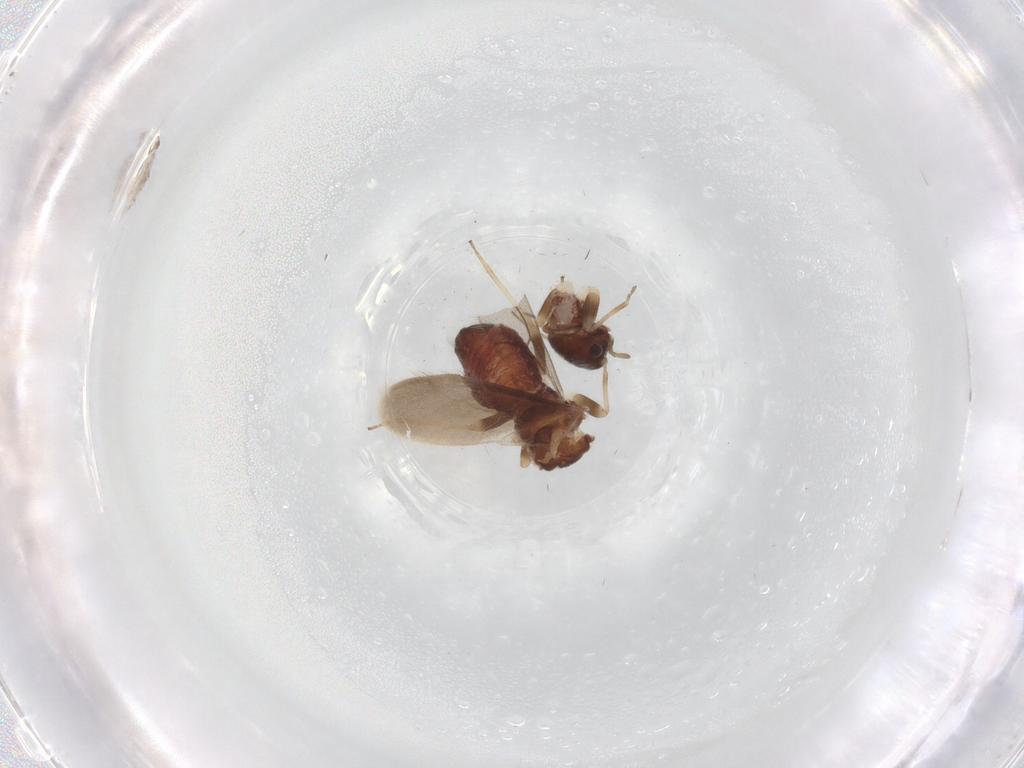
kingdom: Animalia
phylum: Arthropoda
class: Insecta
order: Psocodea
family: Archipsocidae
